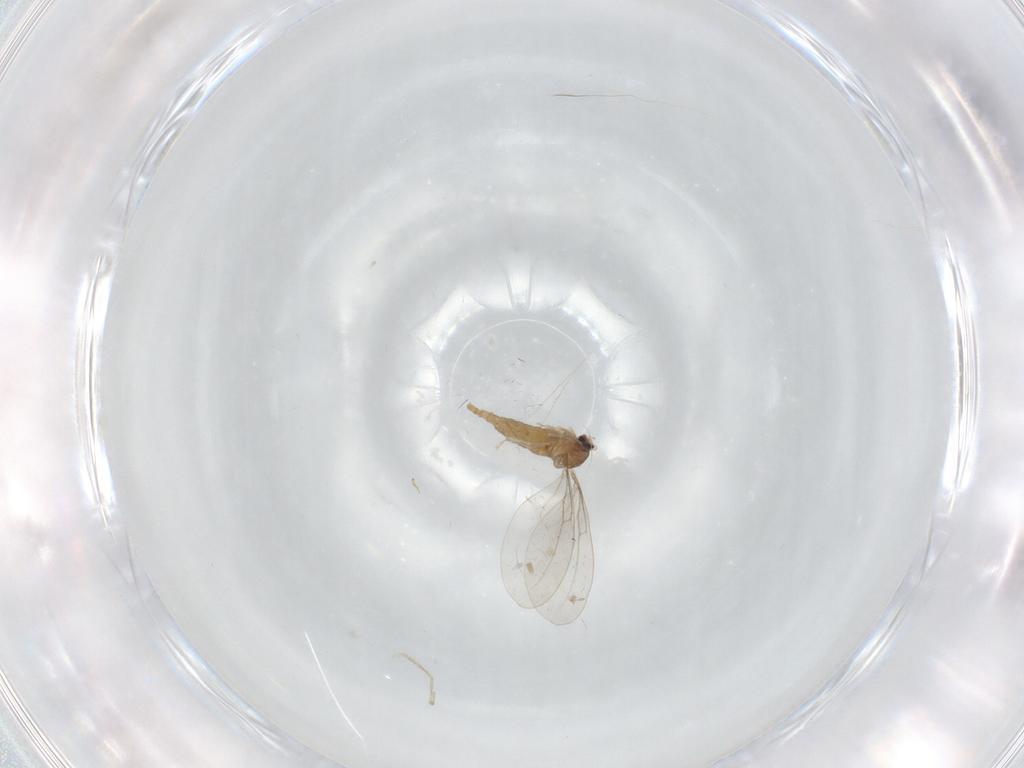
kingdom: Animalia
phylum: Arthropoda
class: Insecta
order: Diptera
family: Cecidomyiidae
